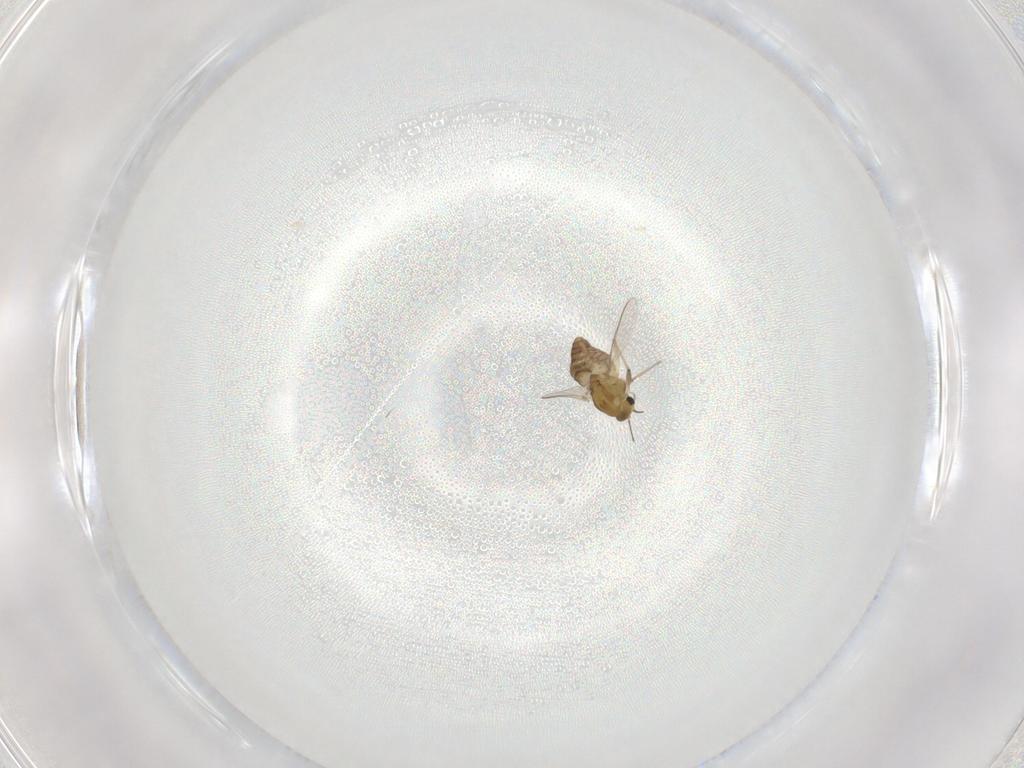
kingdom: Animalia
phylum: Arthropoda
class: Insecta
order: Diptera
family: Chironomidae
